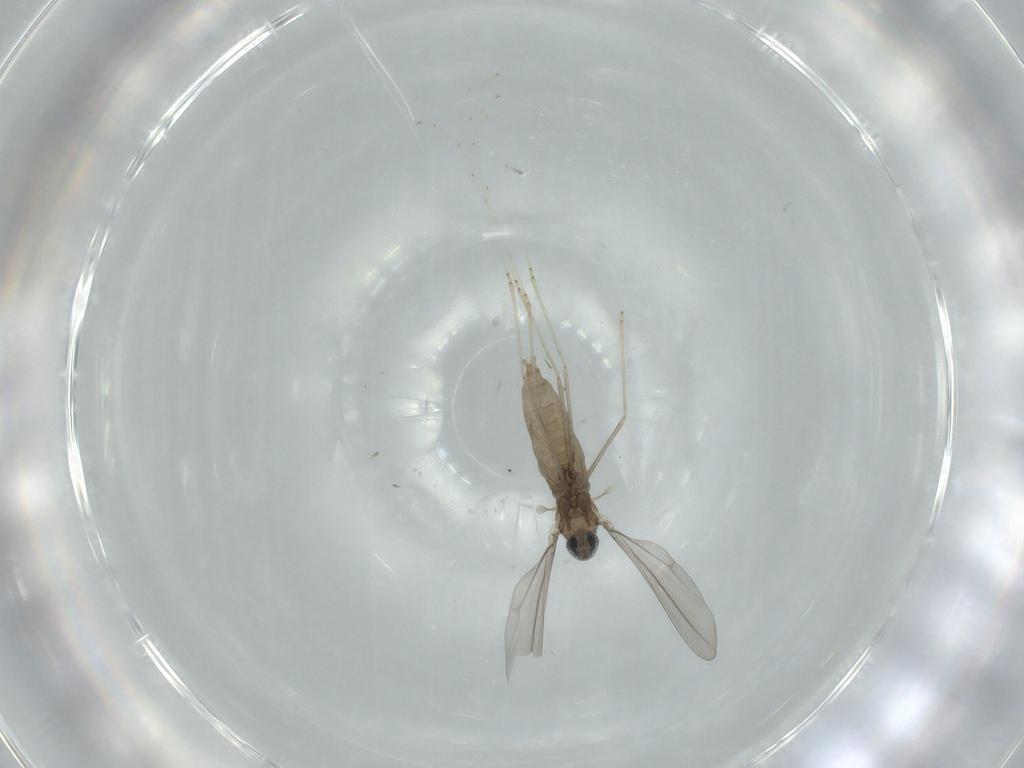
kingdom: Animalia
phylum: Arthropoda
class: Insecta
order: Diptera
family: Cecidomyiidae
